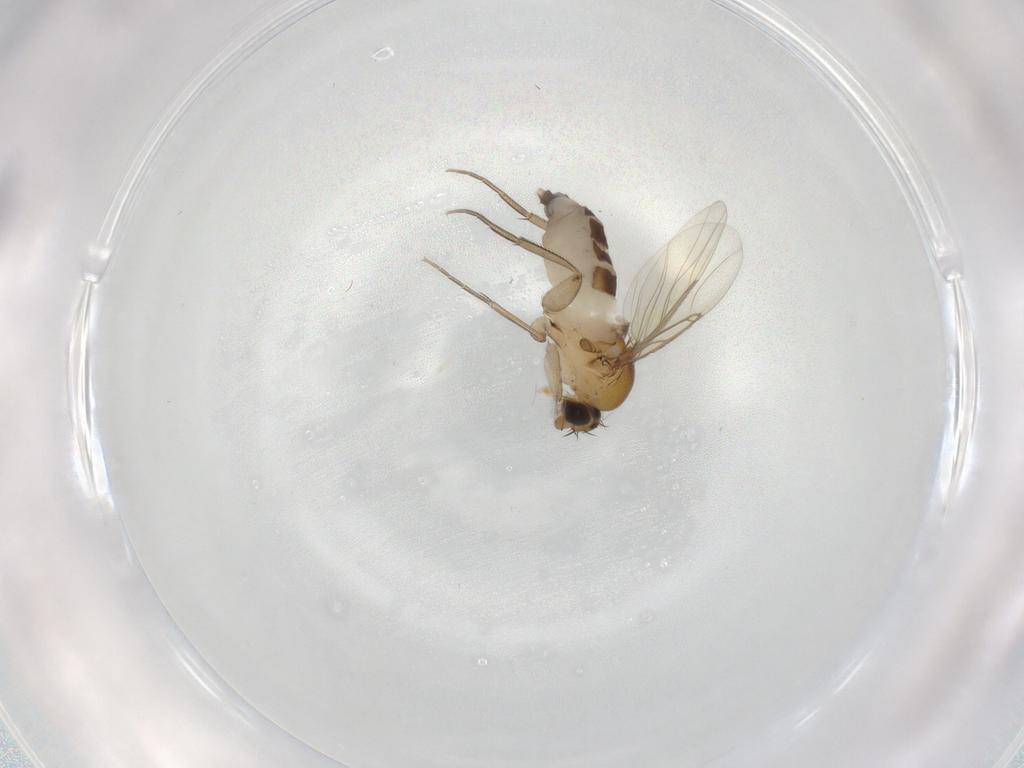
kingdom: Animalia
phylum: Arthropoda
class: Insecta
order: Diptera
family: Phoridae
